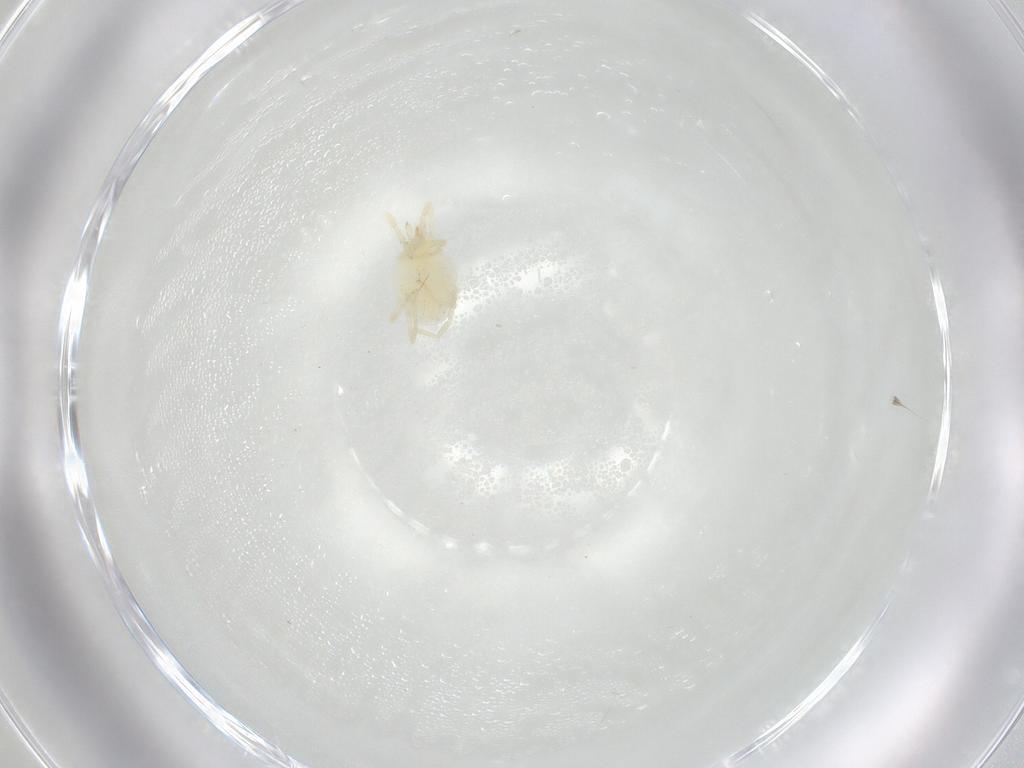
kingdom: Animalia
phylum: Arthropoda
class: Arachnida
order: Trombidiformes
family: Erythraeidae
